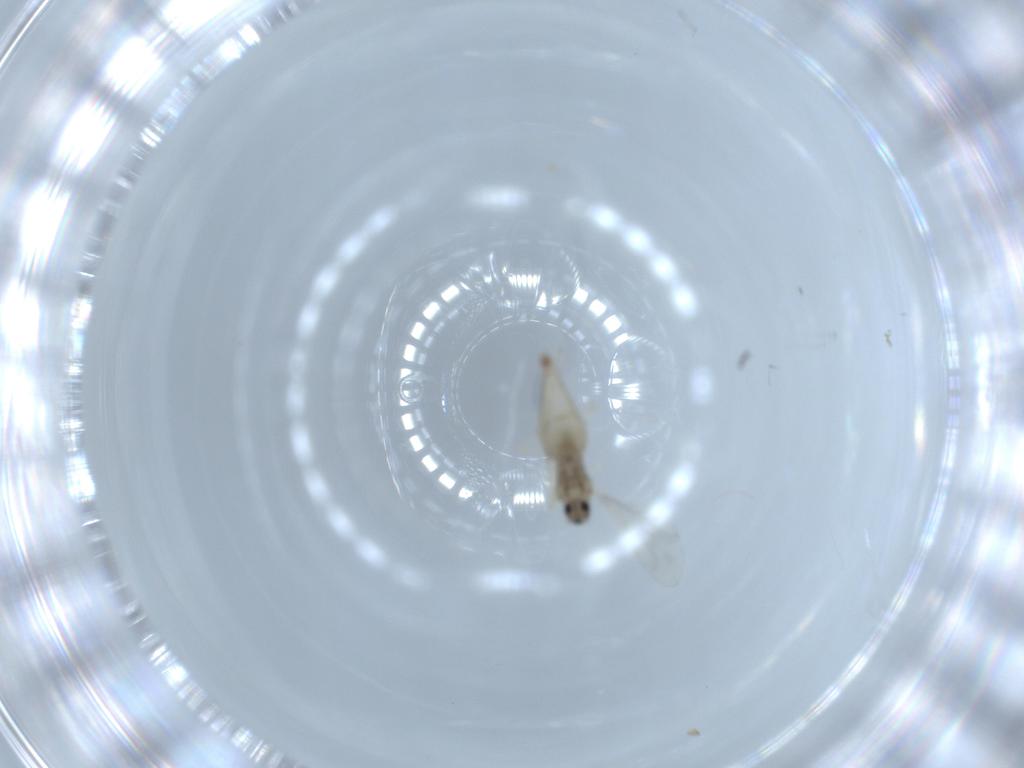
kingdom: Animalia
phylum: Arthropoda
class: Insecta
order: Diptera
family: Cecidomyiidae
